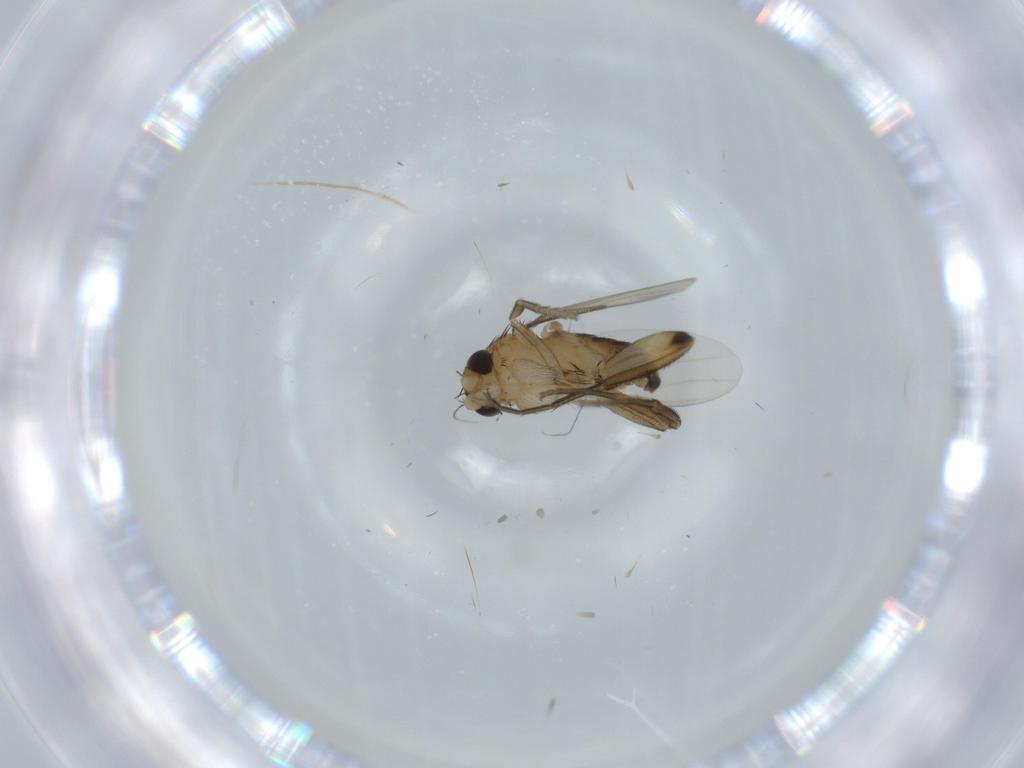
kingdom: Animalia
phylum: Arthropoda
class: Insecta
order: Diptera
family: Phoridae
